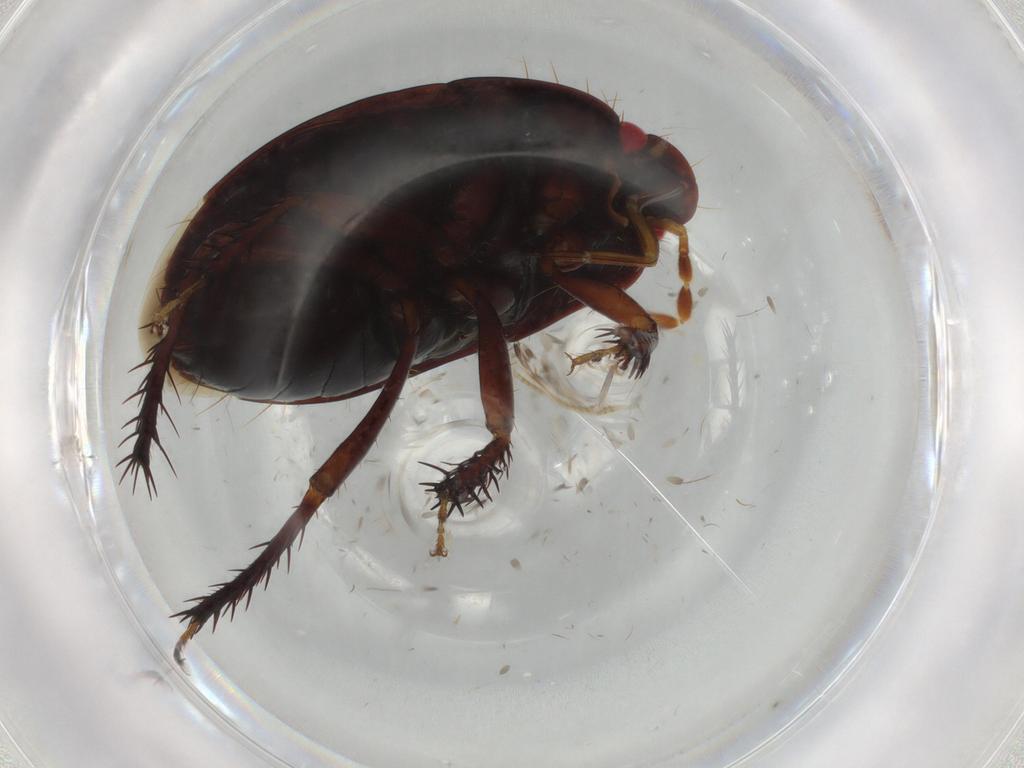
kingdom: Animalia
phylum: Arthropoda
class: Insecta
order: Hemiptera
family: Cydnidae
